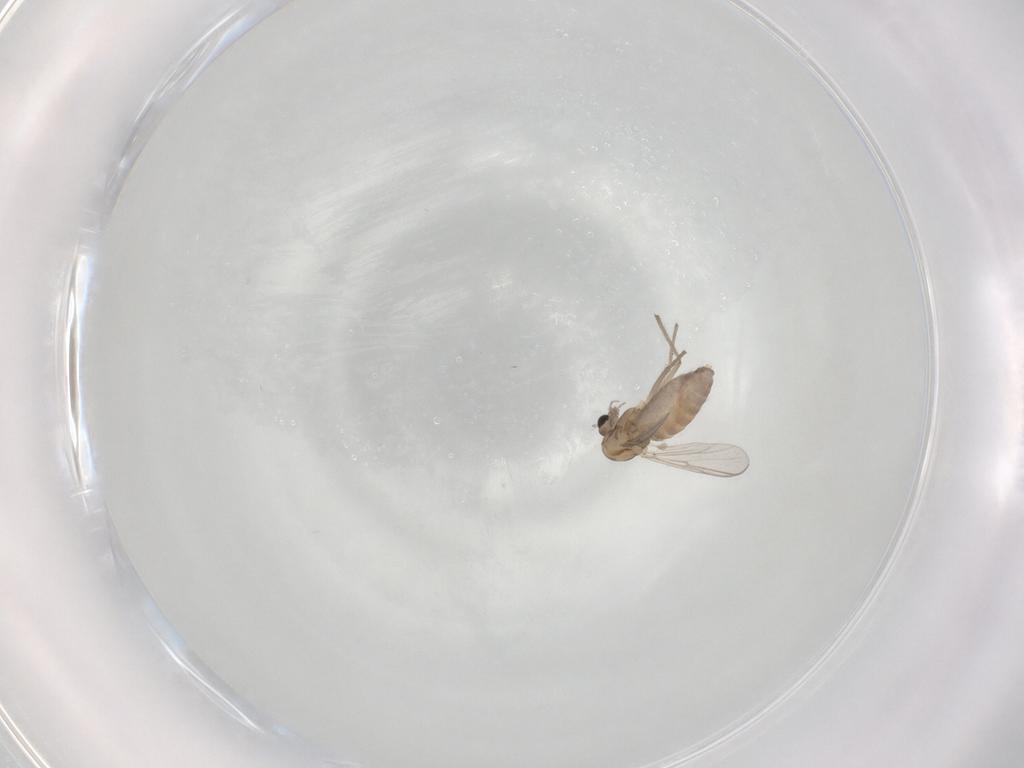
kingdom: Animalia
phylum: Arthropoda
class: Insecta
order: Diptera
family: Chironomidae
